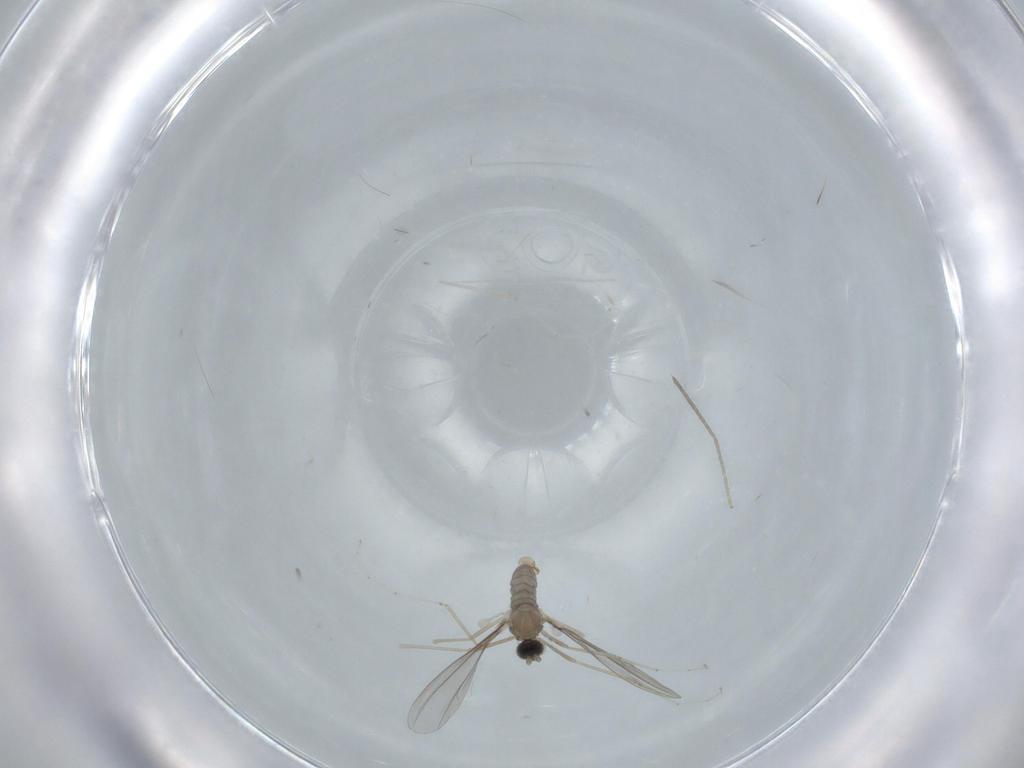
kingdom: Animalia
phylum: Arthropoda
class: Insecta
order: Diptera
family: Cecidomyiidae
